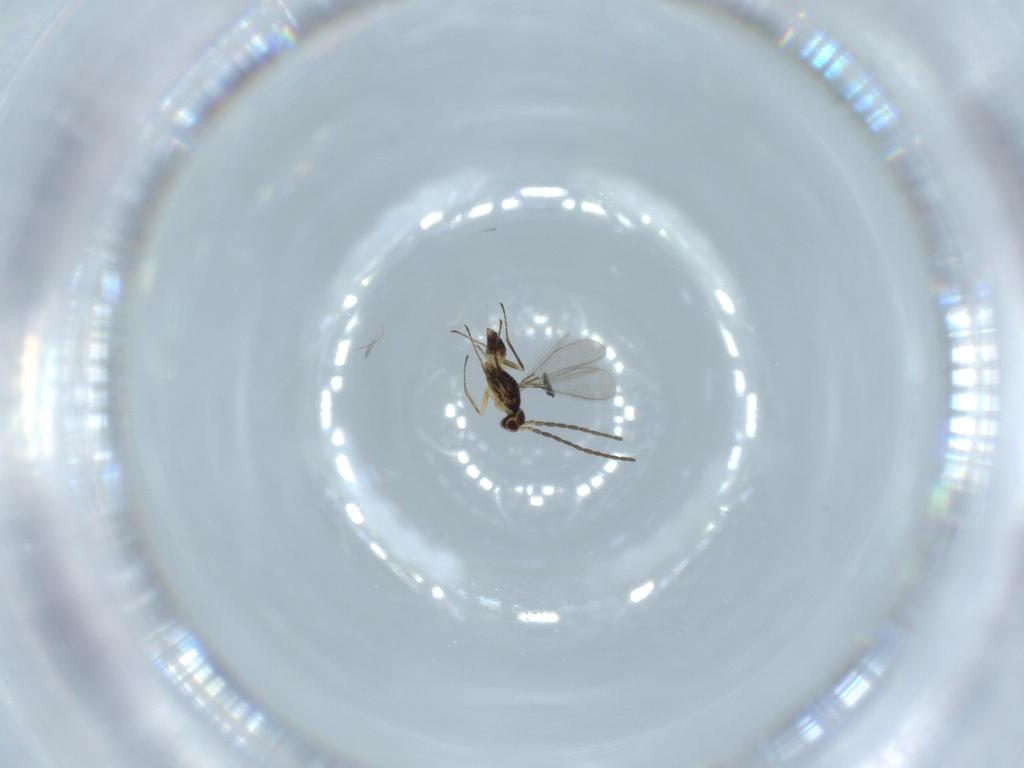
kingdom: Animalia
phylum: Arthropoda
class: Insecta
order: Hymenoptera
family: Mymaridae
